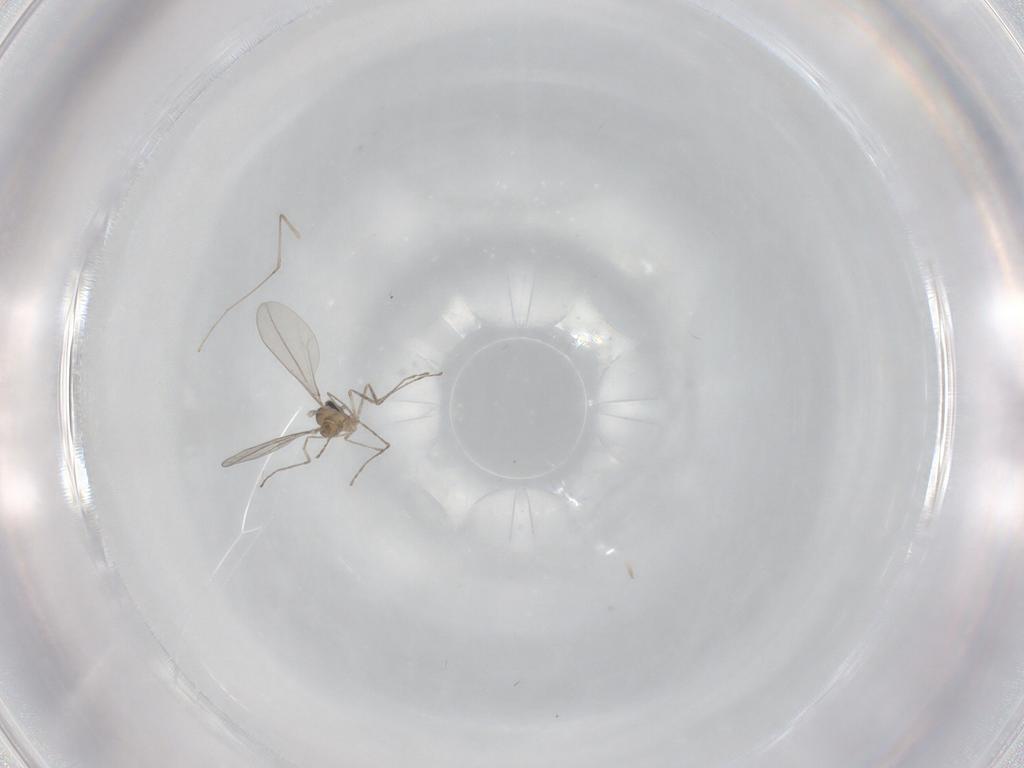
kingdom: Animalia
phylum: Arthropoda
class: Insecta
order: Diptera
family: Cecidomyiidae
